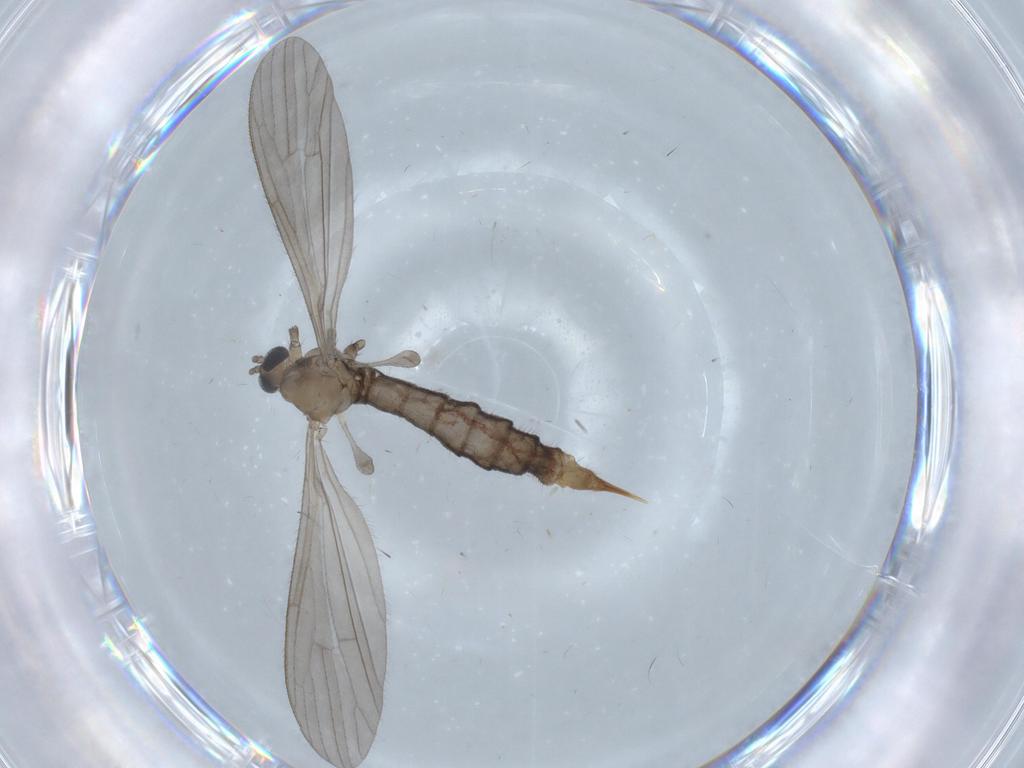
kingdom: Animalia
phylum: Arthropoda
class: Insecta
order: Diptera
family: Limoniidae
